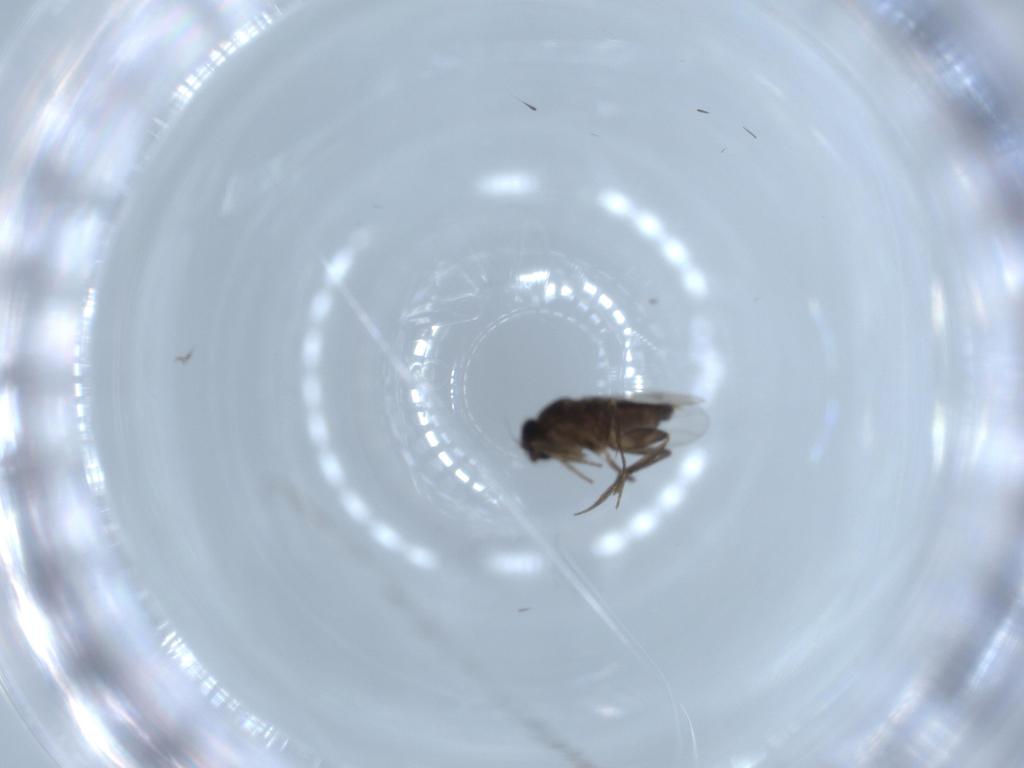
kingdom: Animalia
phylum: Arthropoda
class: Insecta
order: Diptera
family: Phoridae
